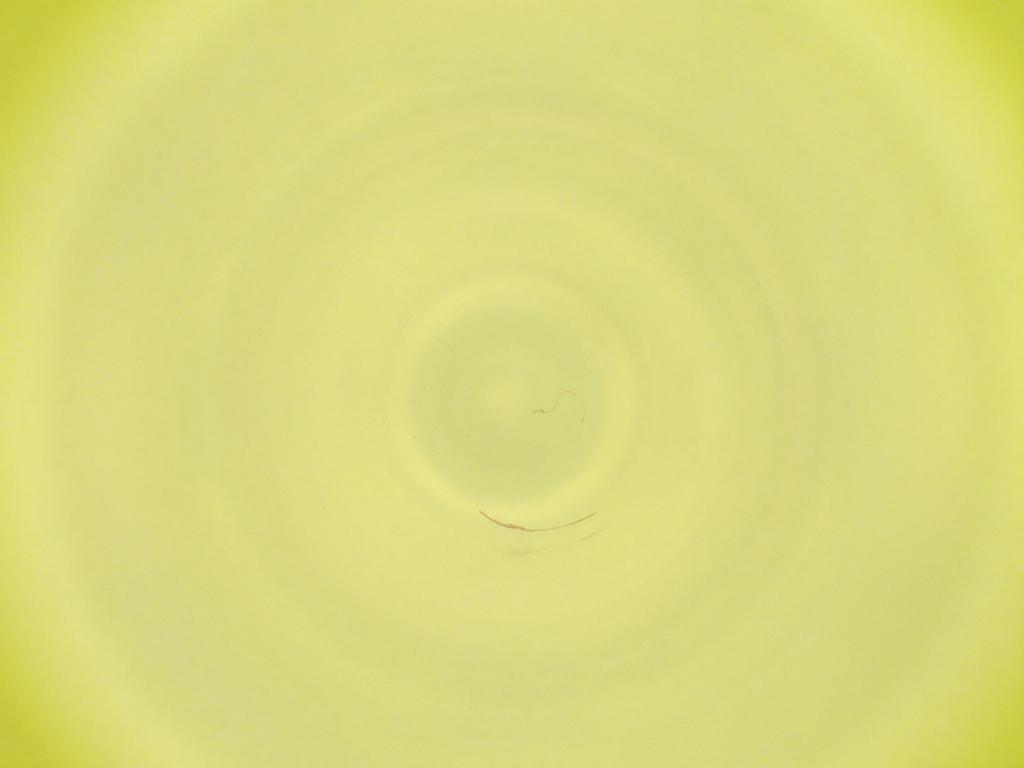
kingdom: Animalia
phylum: Arthropoda
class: Insecta
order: Diptera
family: Cecidomyiidae
